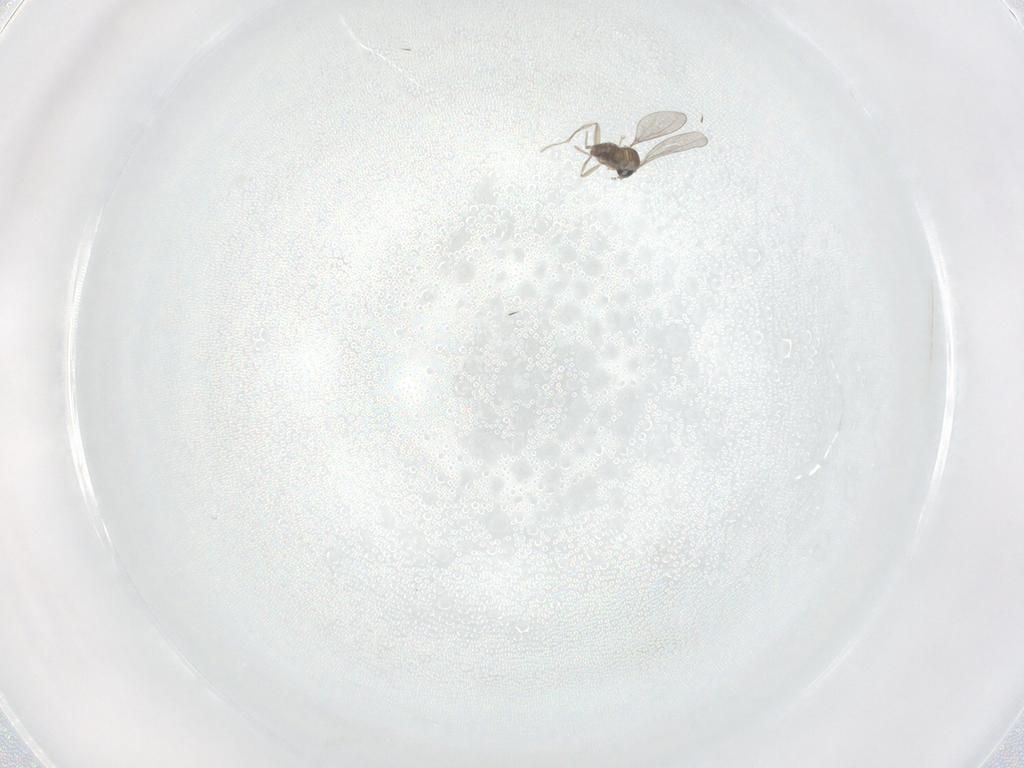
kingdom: Animalia
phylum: Arthropoda
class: Insecta
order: Diptera
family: Cecidomyiidae
